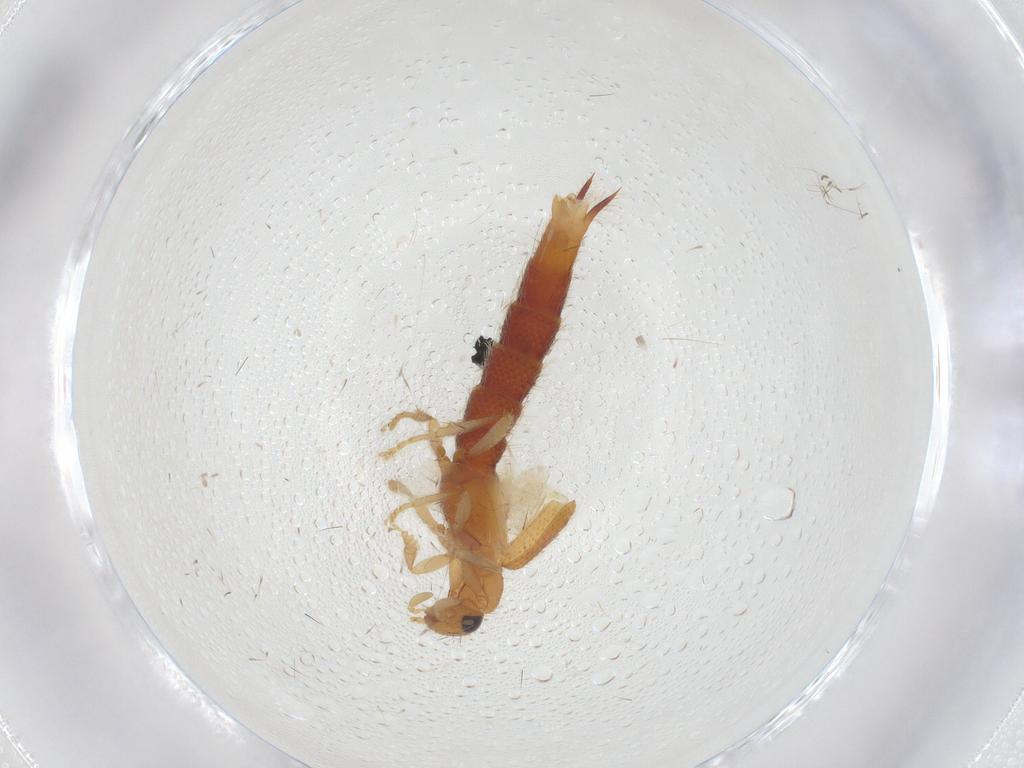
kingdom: Animalia
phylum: Arthropoda
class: Insecta
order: Coleoptera
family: Staphylinidae
